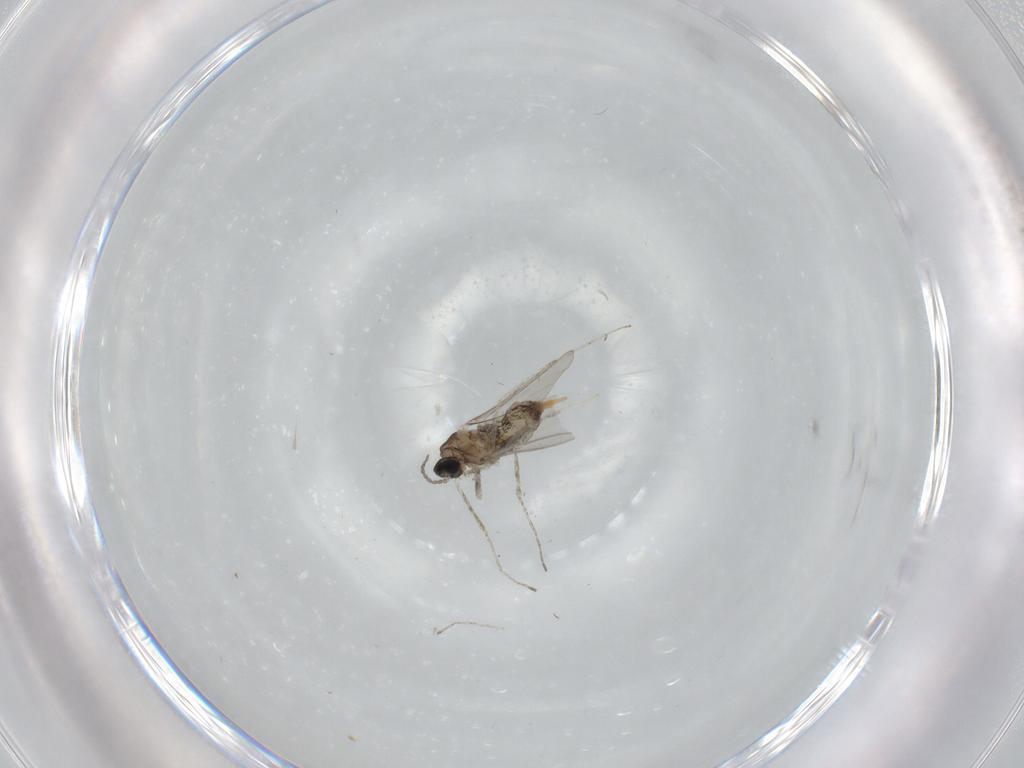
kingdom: Animalia
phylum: Arthropoda
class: Insecta
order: Diptera
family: Cecidomyiidae
